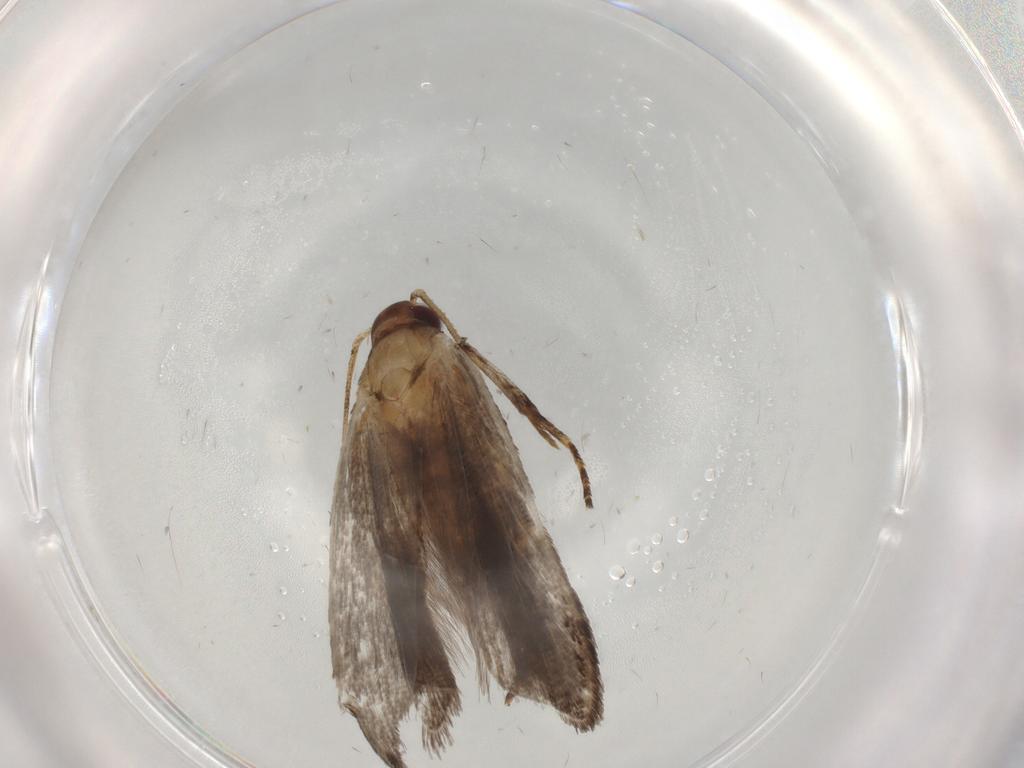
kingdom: Animalia
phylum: Arthropoda
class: Insecta
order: Lepidoptera
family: Gelechiidae
